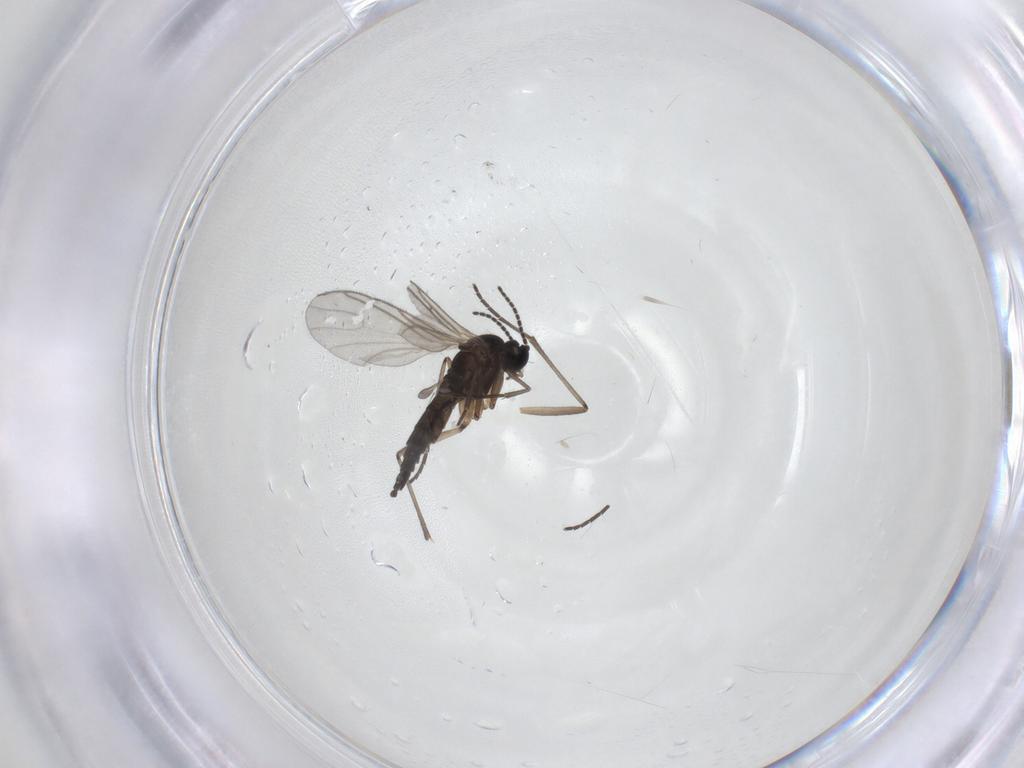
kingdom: Animalia
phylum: Arthropoda
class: Insecta
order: Diptera
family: Sciaridae
